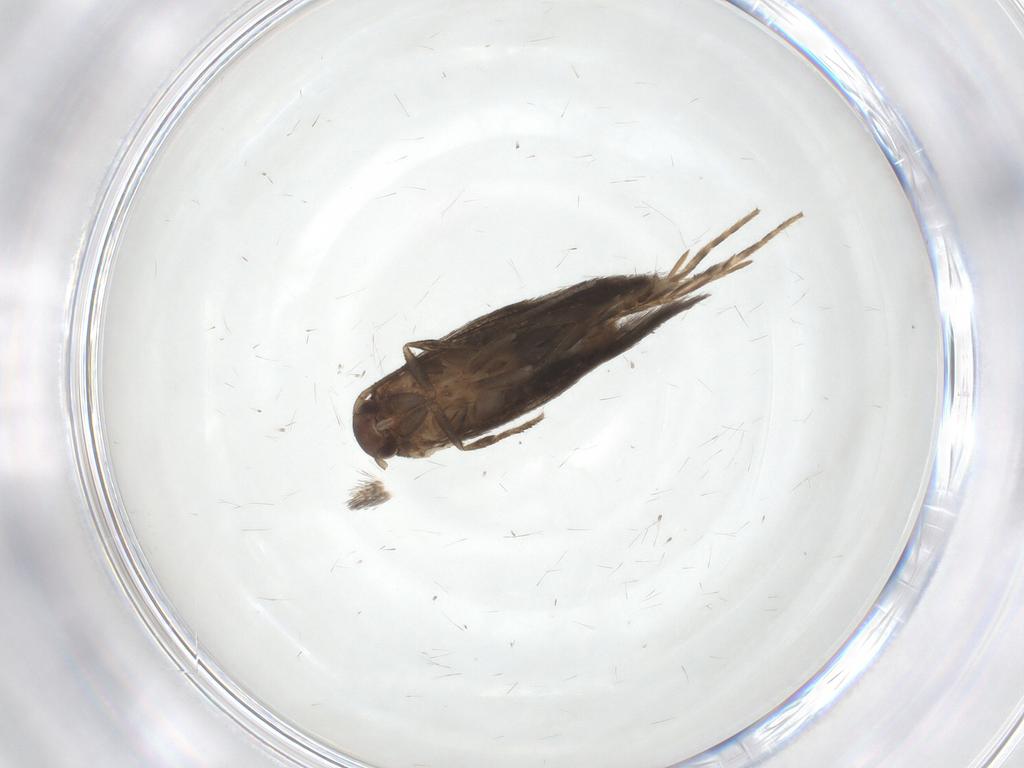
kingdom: Animalia
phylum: Arthropoda
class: Insecta
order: Lepidoptera
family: Elachistidae
